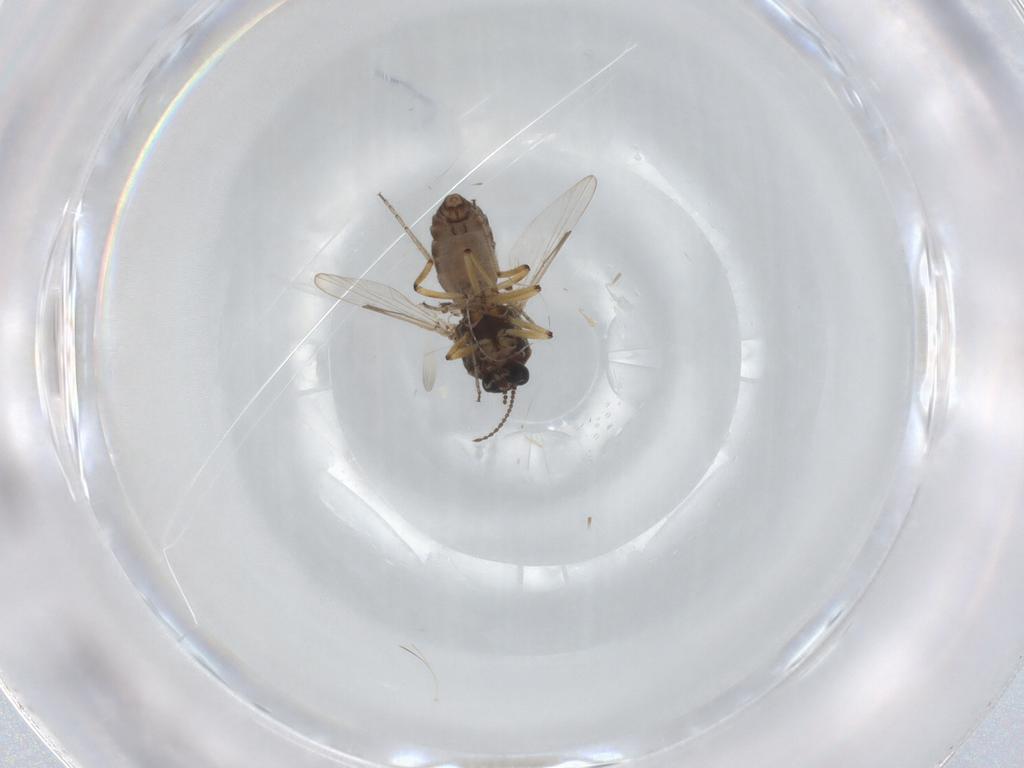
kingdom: Animalia
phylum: Arthropoda
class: Insecta
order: Diptera
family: Ceratopogonidae
